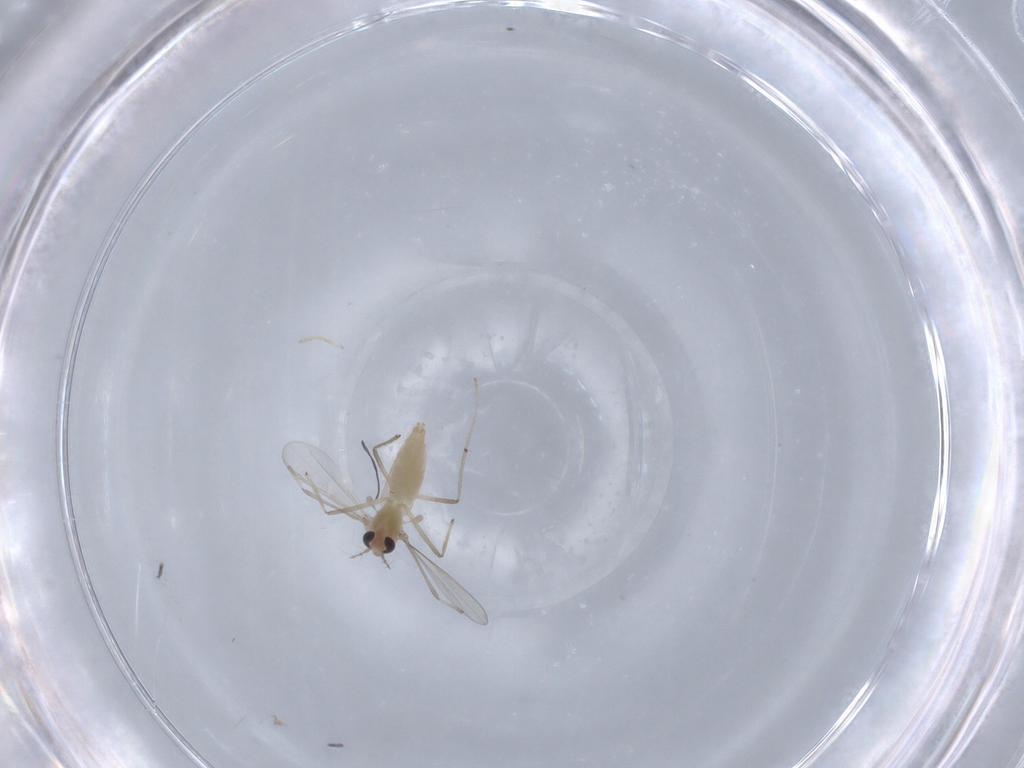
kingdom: Animalia
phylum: Arthropoda
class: Insecta
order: Diptera
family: Chironomidae
